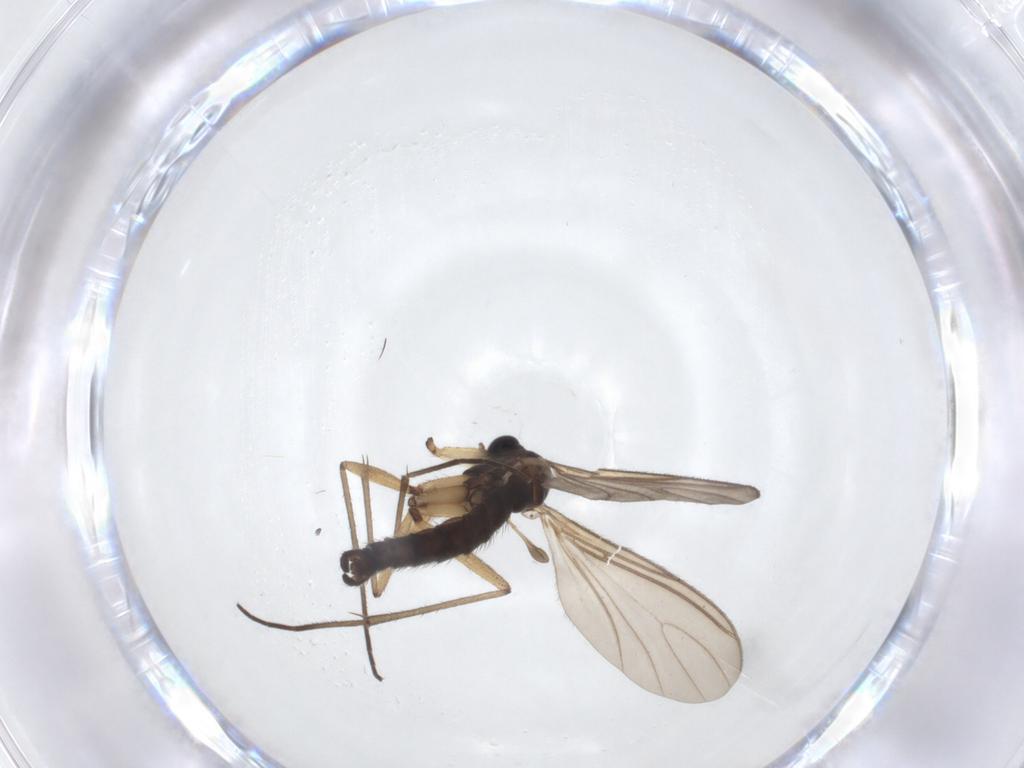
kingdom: Animalia
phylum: Arthropoda
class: Insecta
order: Diptera
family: Sciaridae
